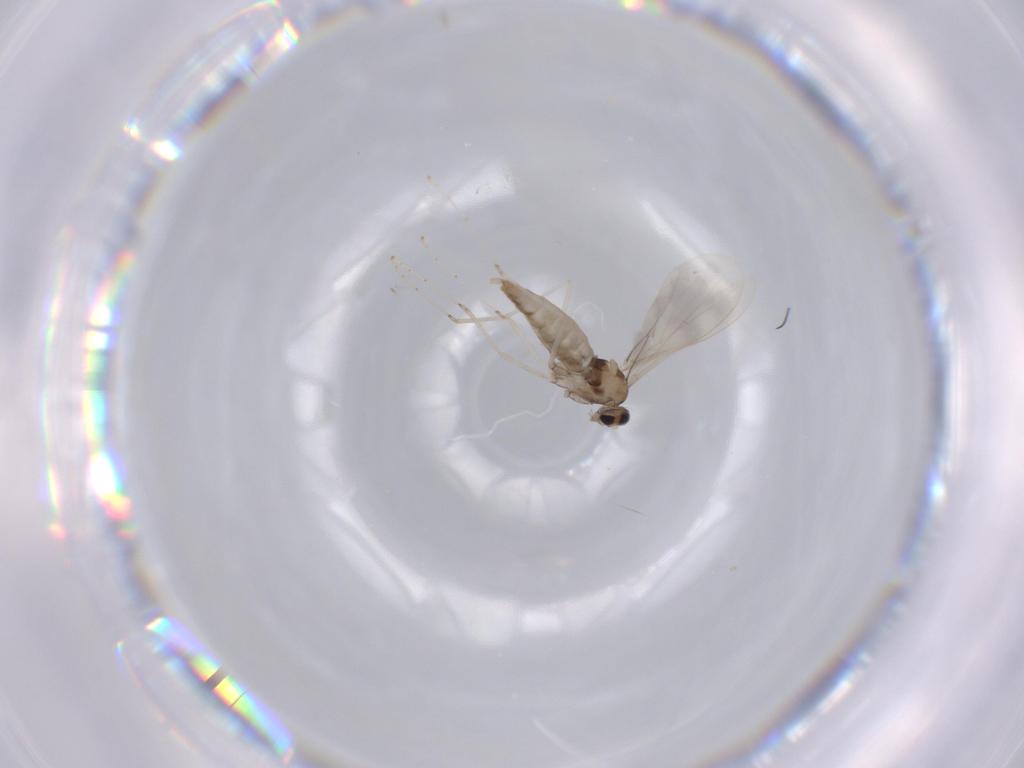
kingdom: Animalia
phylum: Arthropoda
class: Insecta
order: Diptera
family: Cecidomyiidae
